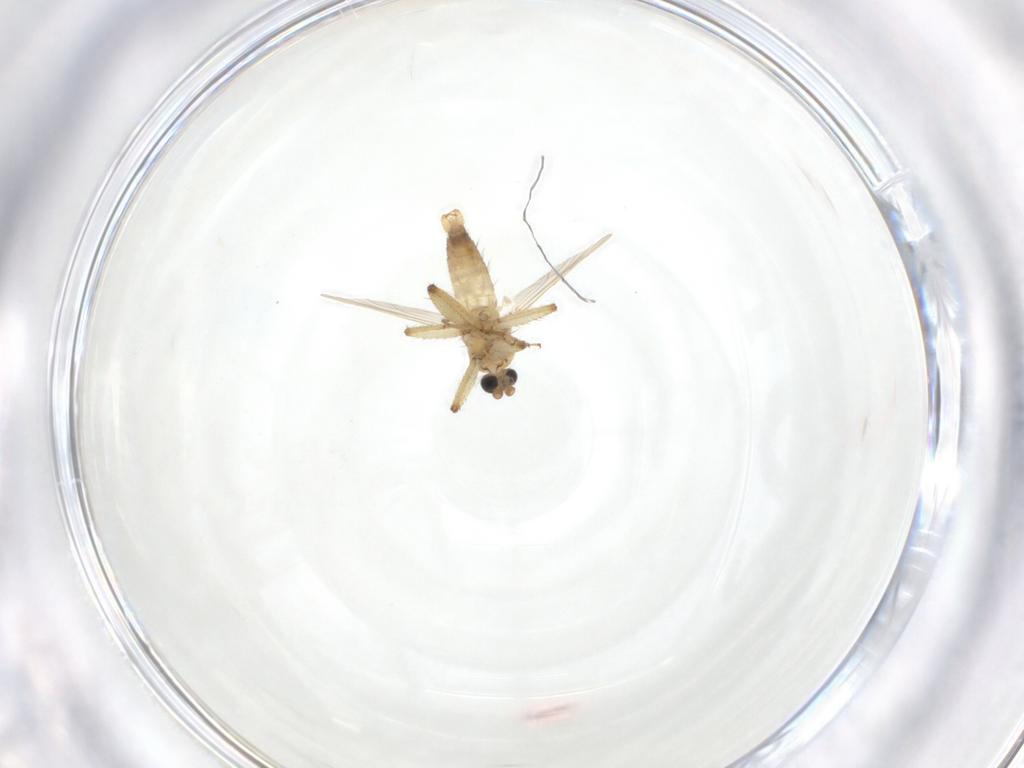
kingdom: Animalia
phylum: Arthropoda
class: Insecta
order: Diptera
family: Ceratopogonidae
